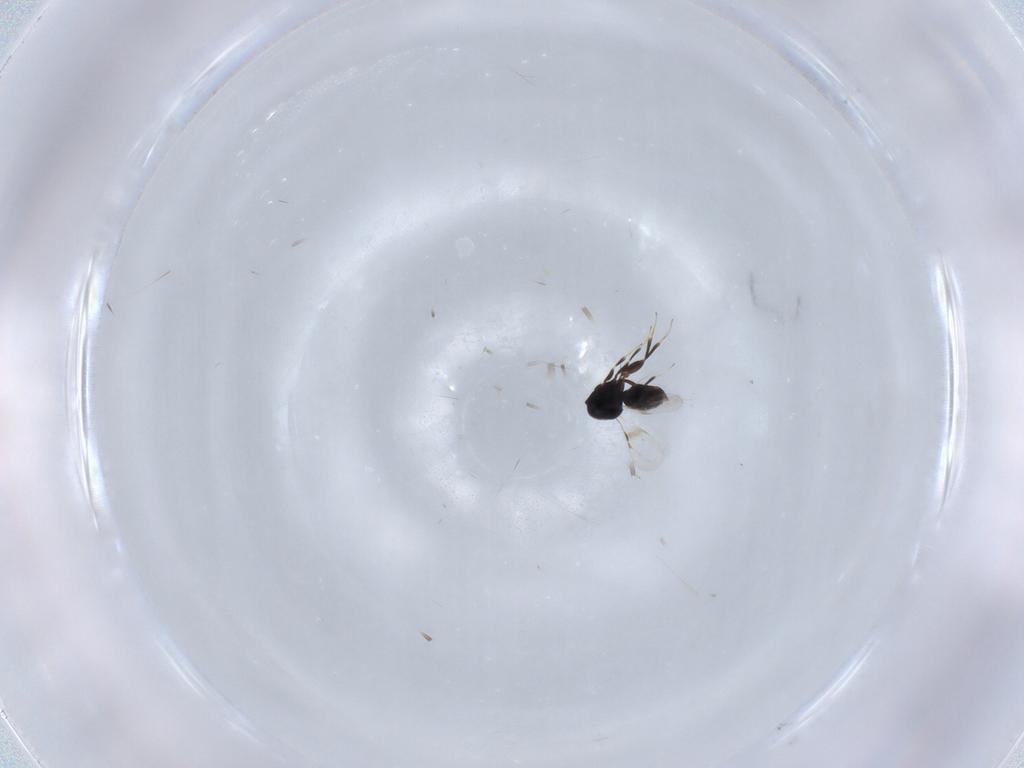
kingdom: Animalia
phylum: Arthropoda
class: Insecta
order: Hymenoptera
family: Ceraphronidae
